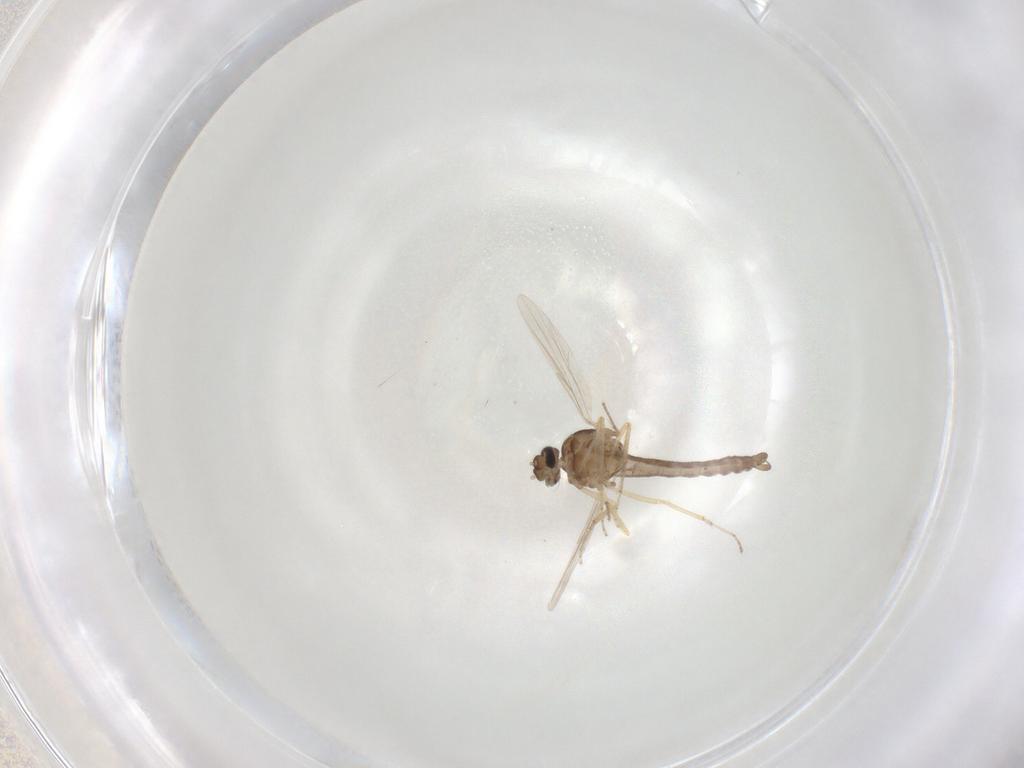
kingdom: Animalia
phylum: Arthropoda
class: Insecta
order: Diptera
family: Ceratopogonidae
